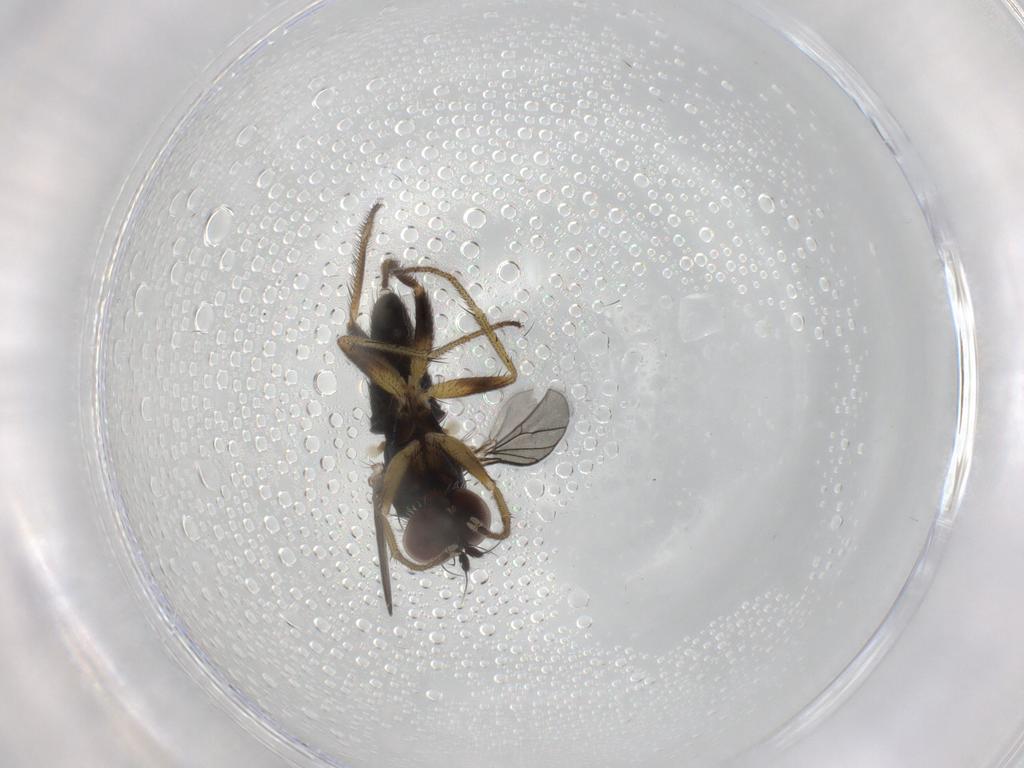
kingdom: Animalia
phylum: Arthropoda
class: Insecta
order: Diptera
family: Dolichopodidae
